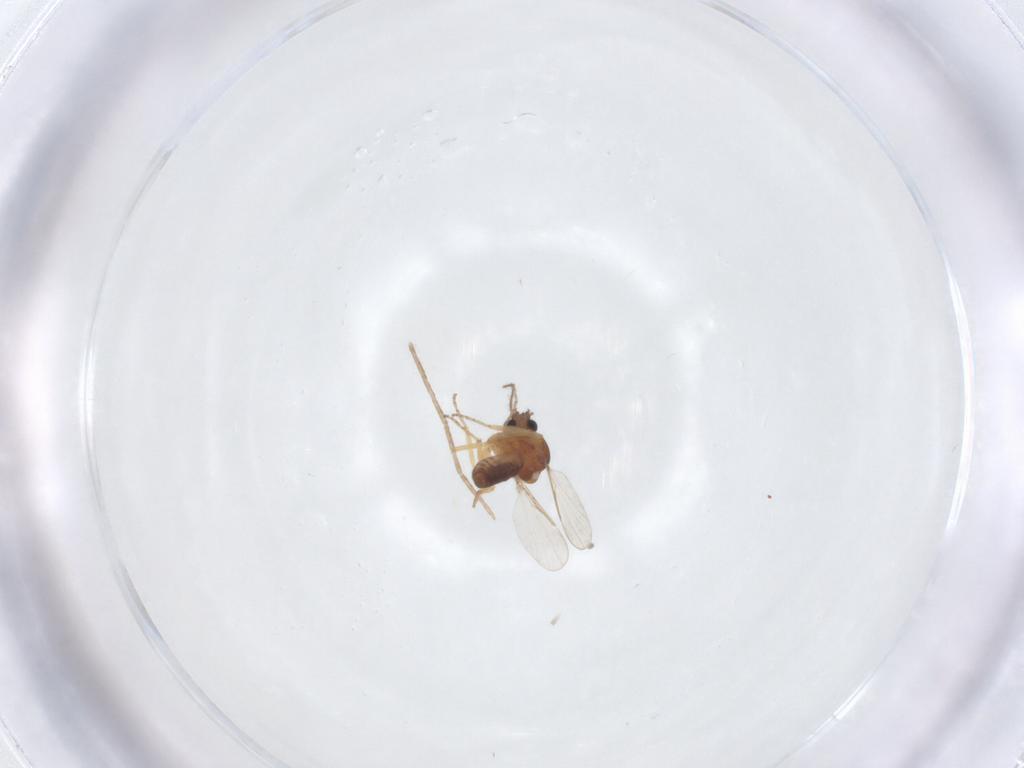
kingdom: Animalia
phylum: Arthropoda
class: Insecta
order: Diptera
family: Cecidomyiidae
